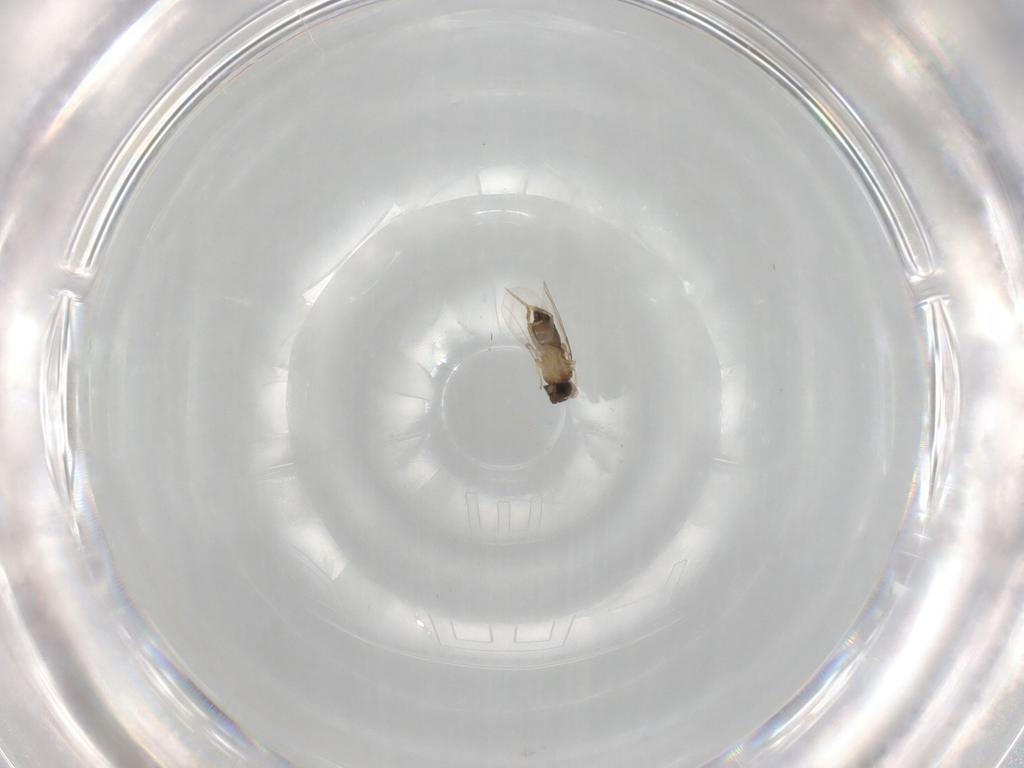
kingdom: Animalia
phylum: Arthropoda
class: Insecta
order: Diptera
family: Phoridae
